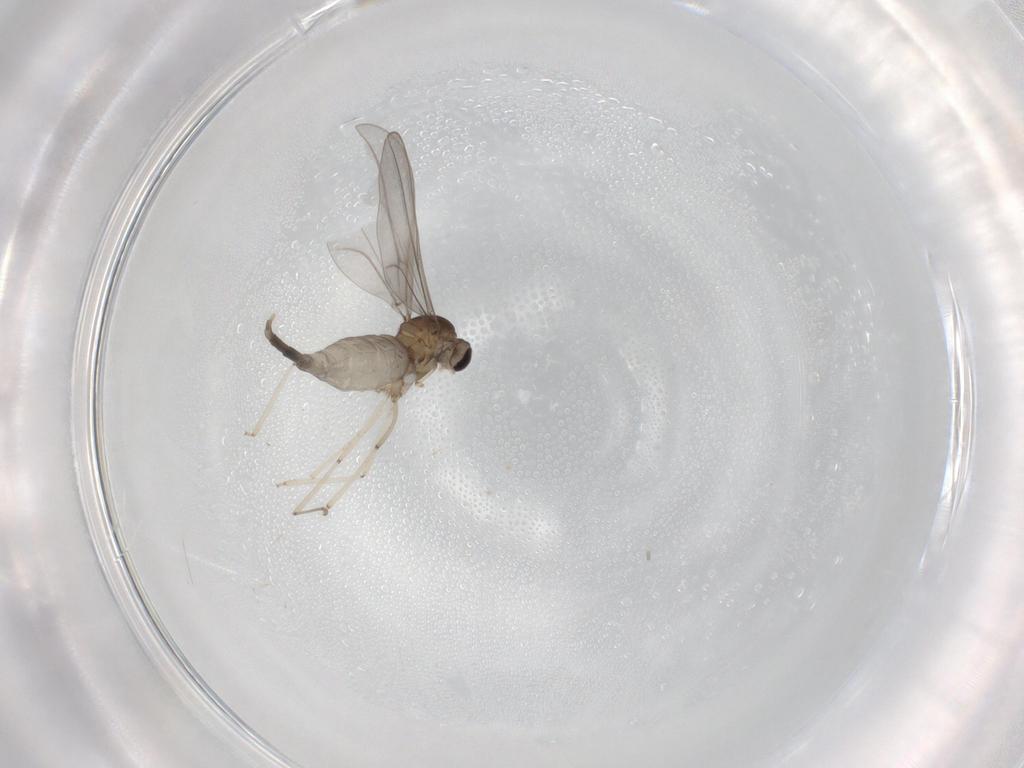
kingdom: Animalia
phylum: Arthropoda
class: Insecta
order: Diptera
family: Cecidomyiidae
